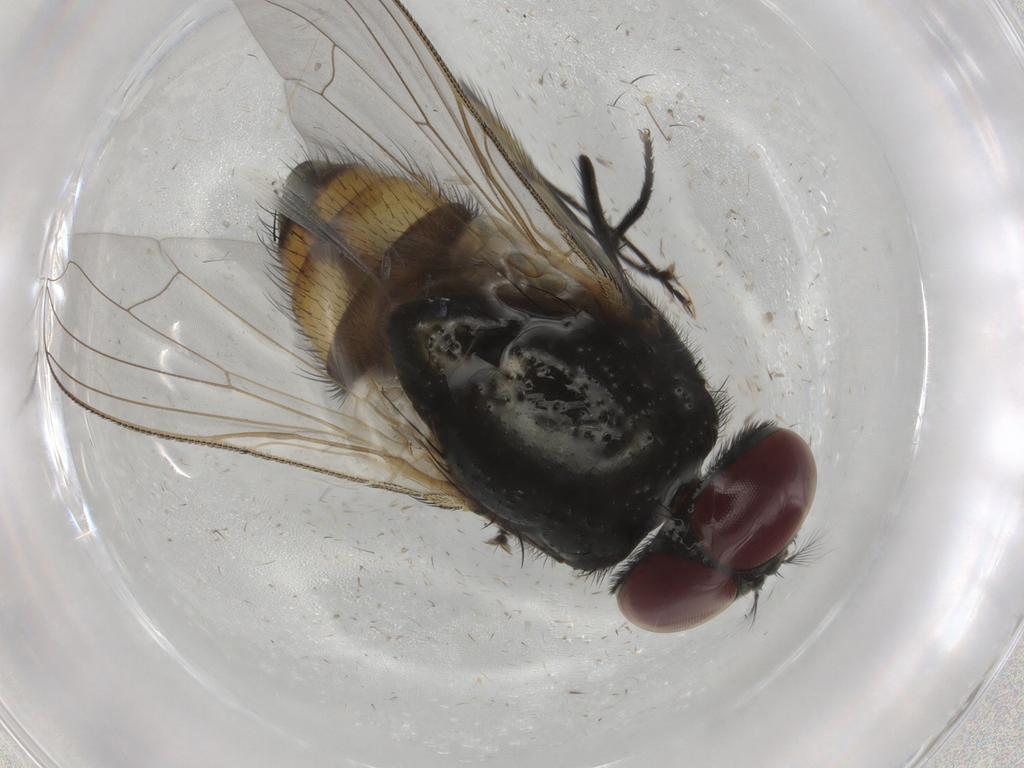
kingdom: Animalia
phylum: Arthropoda
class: Insecta
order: Diptera
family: Muscidae
